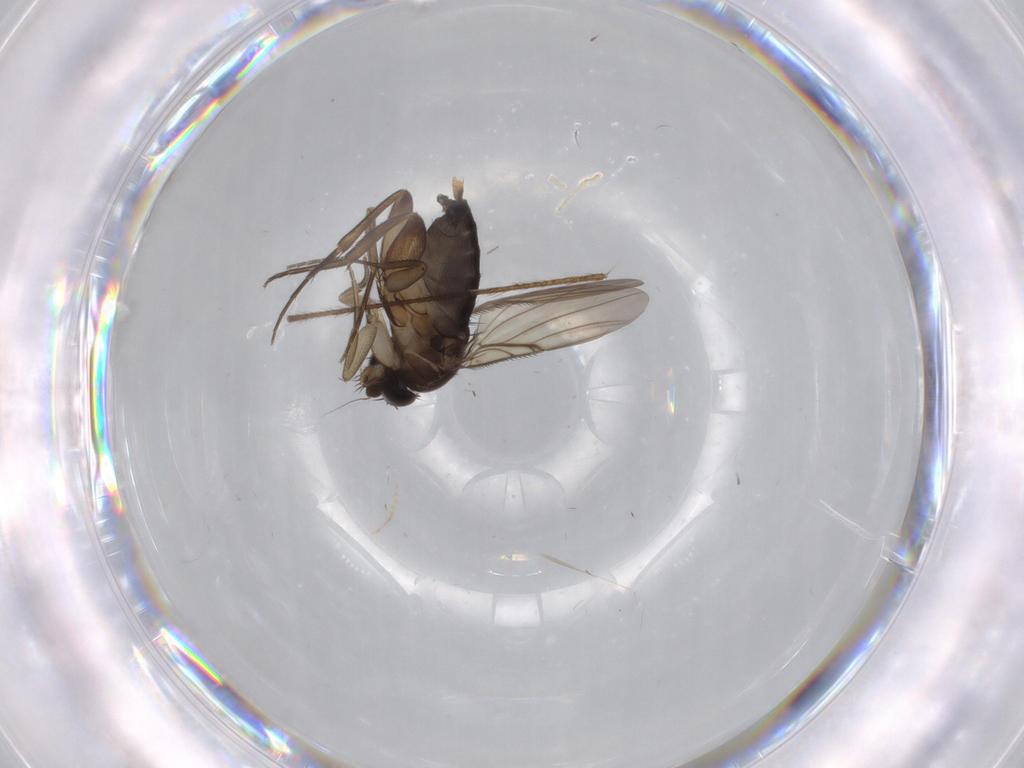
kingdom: Animalia
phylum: Arthropoda
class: Insecta
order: Diptera
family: Phoridae
